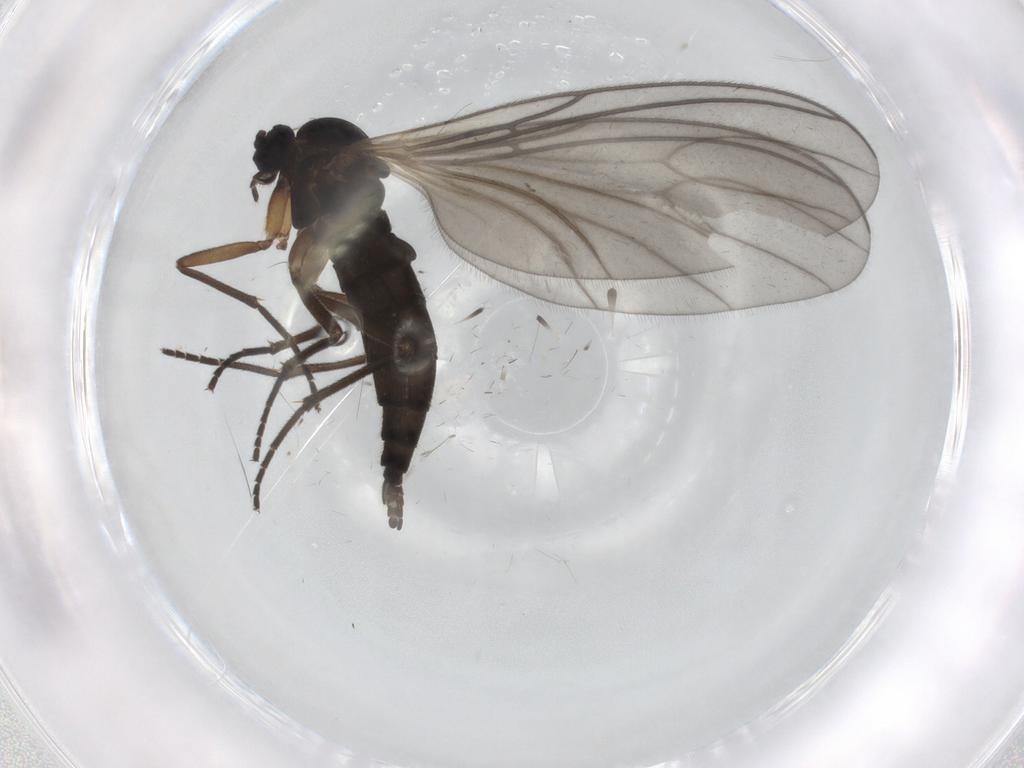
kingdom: Animalia
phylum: Arthropoda
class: Insecta
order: Diptera
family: Sciaridae
